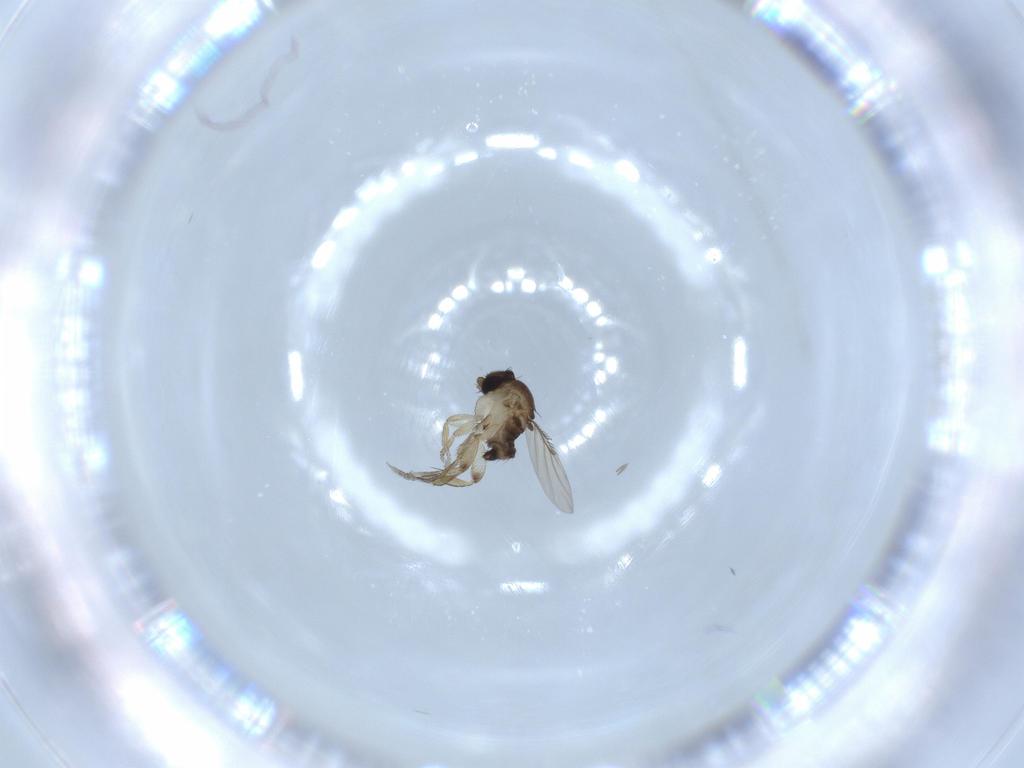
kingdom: Animalia
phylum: Arthropoda
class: Insecta
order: Diptera
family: Phoridae
